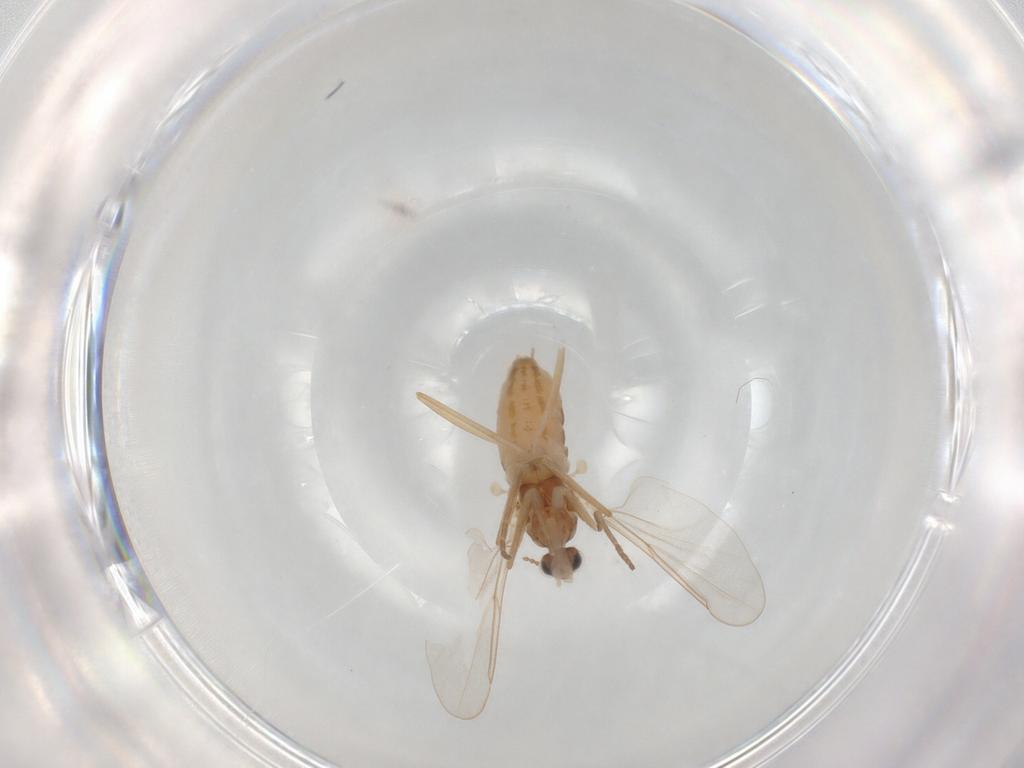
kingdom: Animalia
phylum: Arthropoda
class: Insecta
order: Diptera
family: Cecidomyiidae
